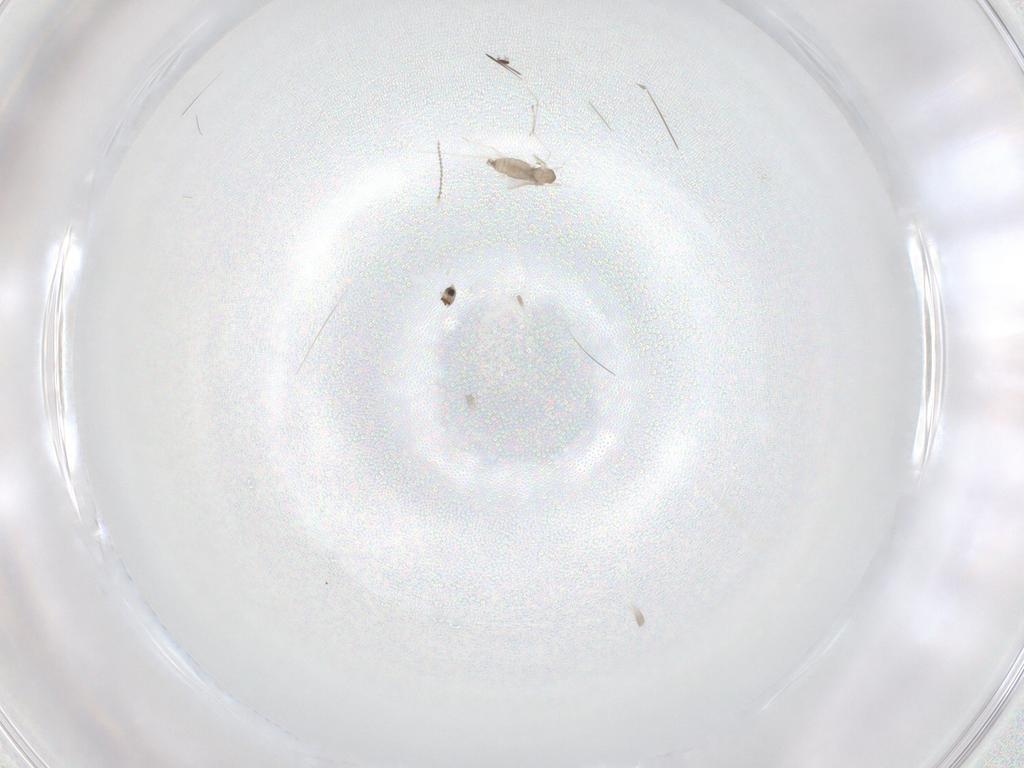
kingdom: Animalia
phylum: Arthropoda
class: Insecta
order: Diptera
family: Cecidomyiidae
